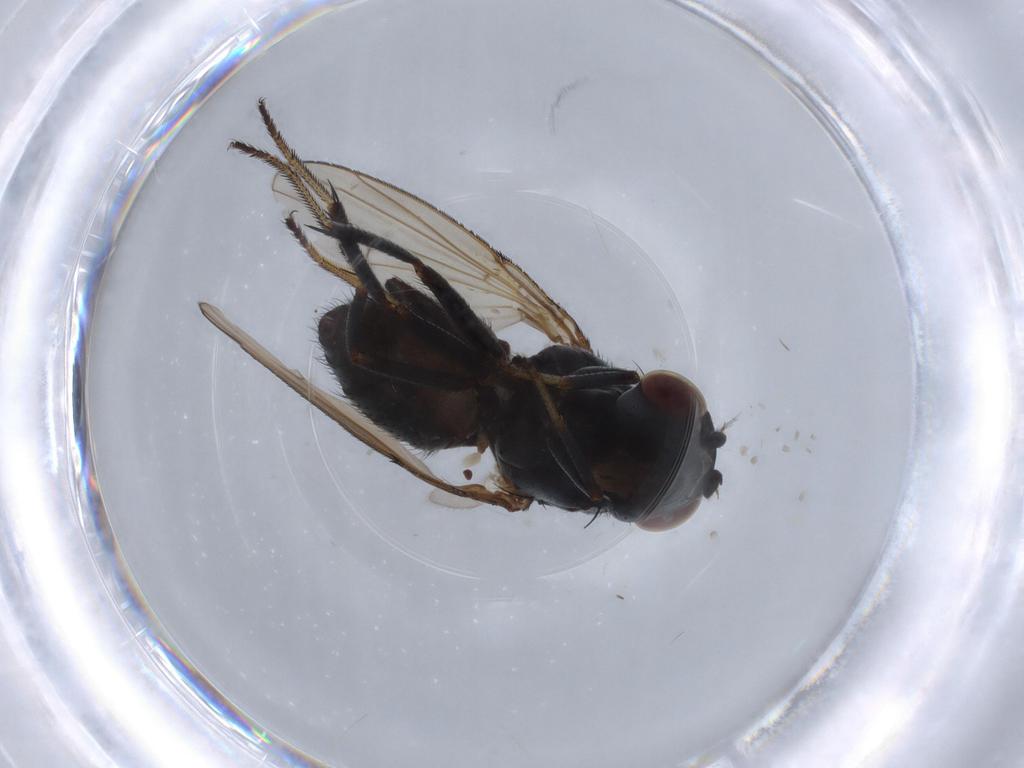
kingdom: Animalia
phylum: Arthropoda
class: Insecta
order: Diptera
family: Ephydridae
